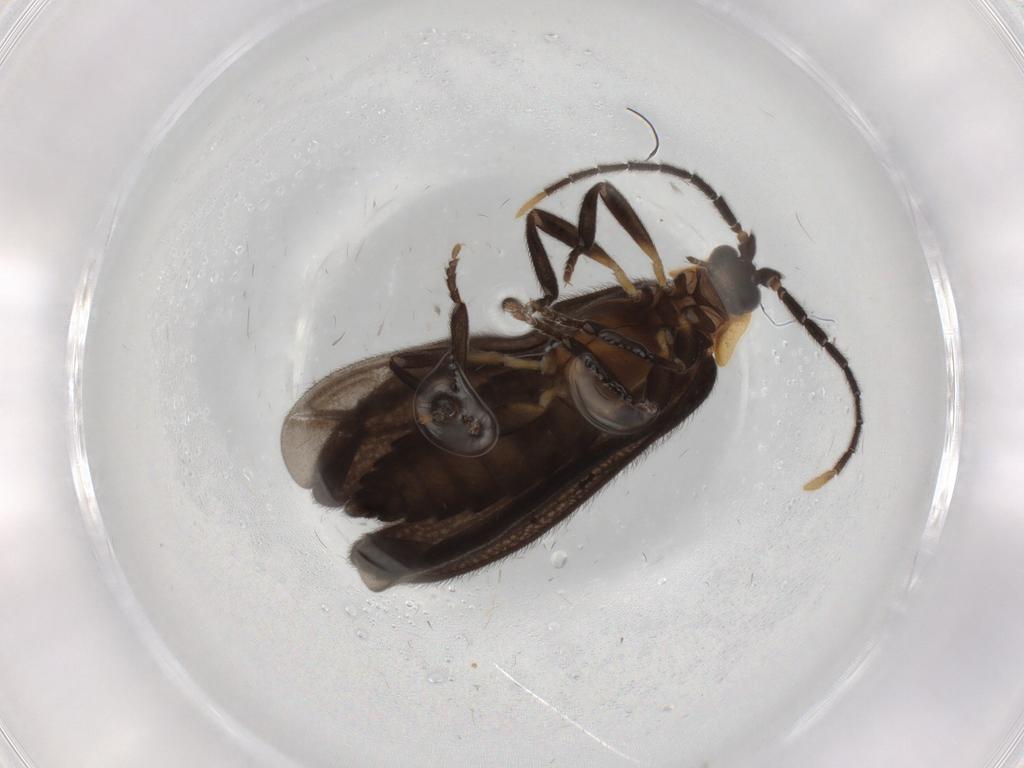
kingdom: Animalia
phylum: Arthropoda
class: Insecta
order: Coleoptera
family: Lycidae
